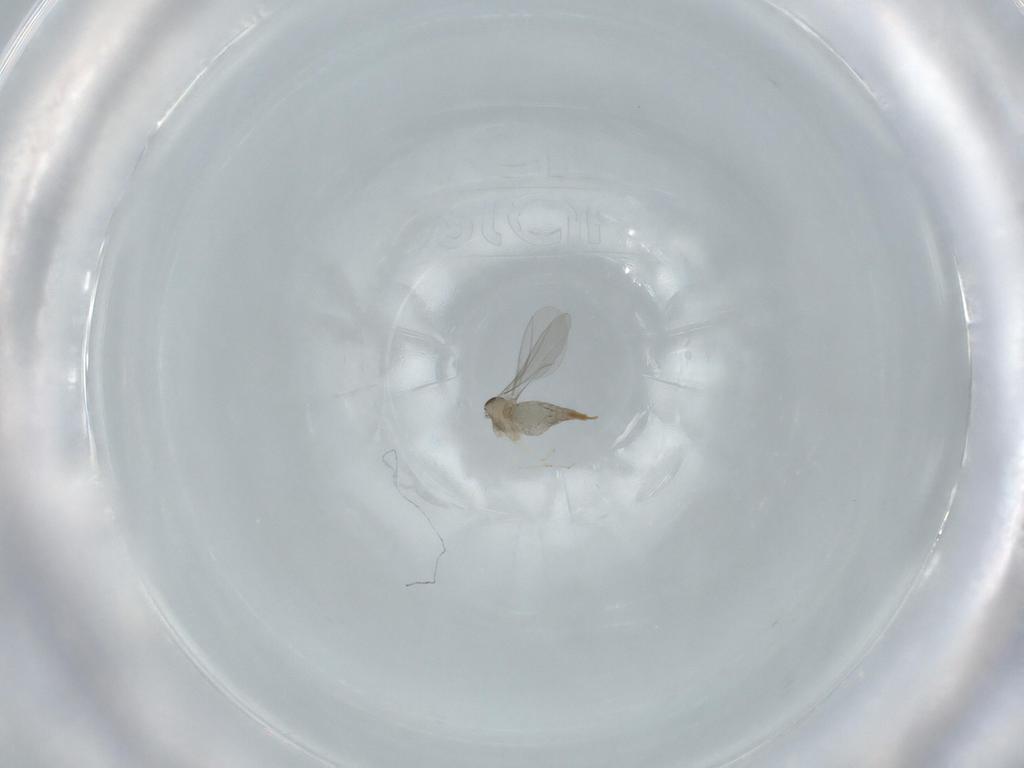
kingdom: Animalia
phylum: Arthropoda
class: Insecta
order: Diptera
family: Cecidomyiidae
